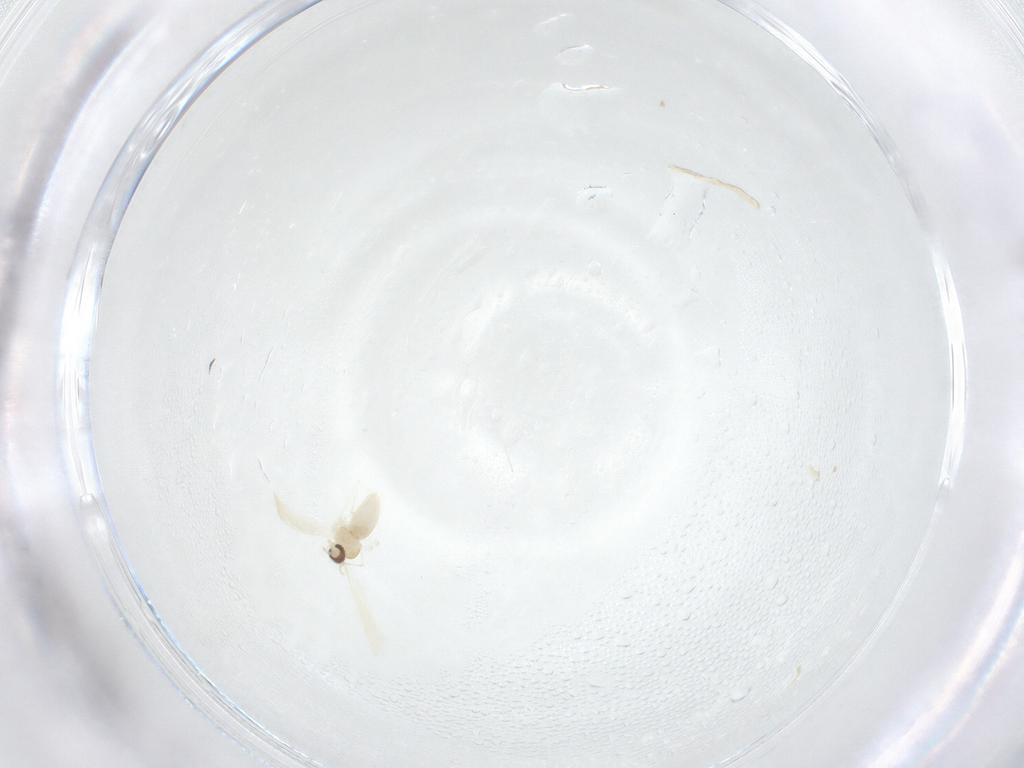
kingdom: Animalia
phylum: Arthropoda
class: Insecta
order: Diptera
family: Cecidomyiidae
